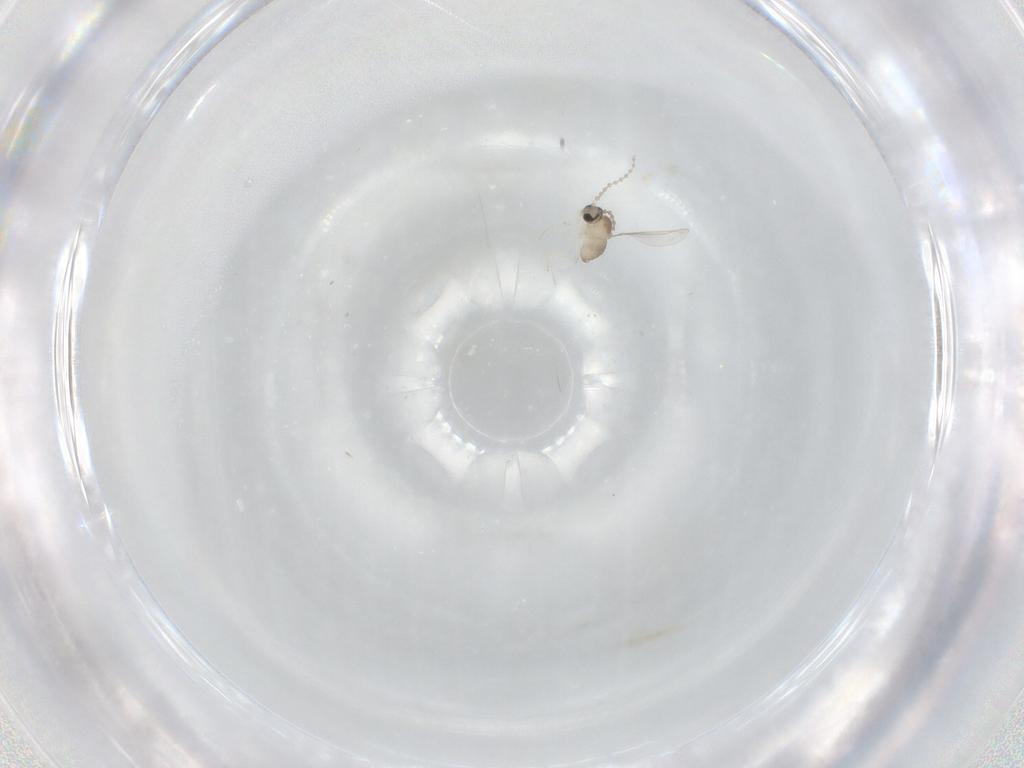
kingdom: Animalia
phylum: Arthropoda
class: Insecta
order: Diptera
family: Cecidomyiidae
